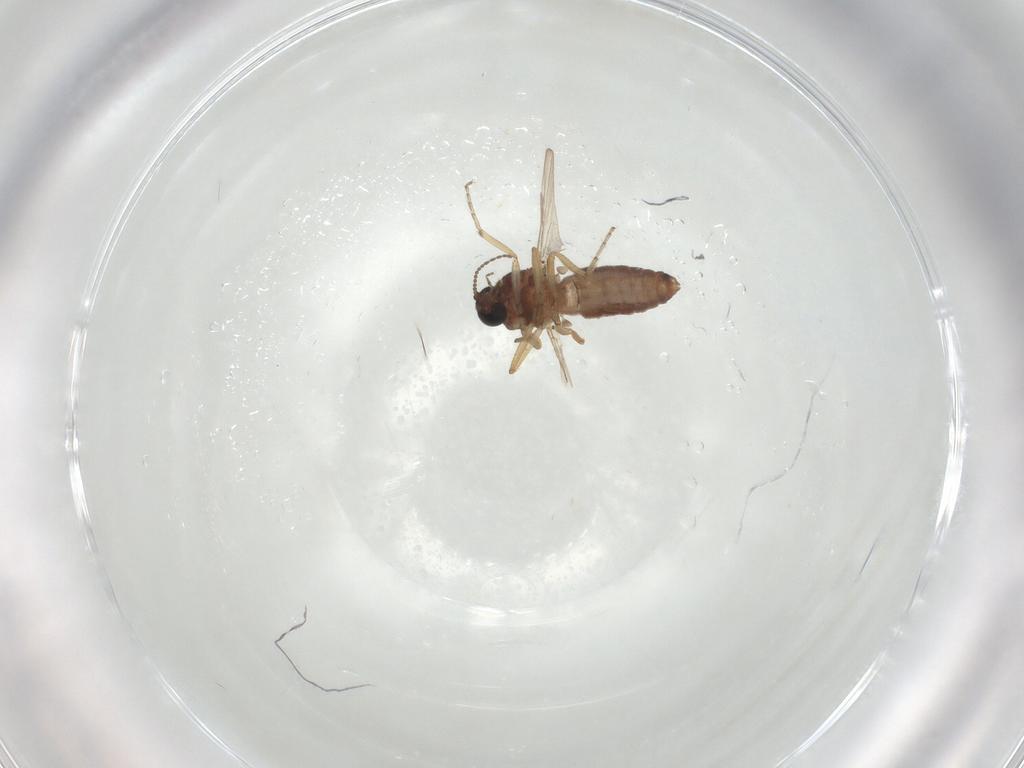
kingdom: Animalia
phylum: Arthropoda
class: Insecta
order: Diptera
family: Ceratopogonidae
